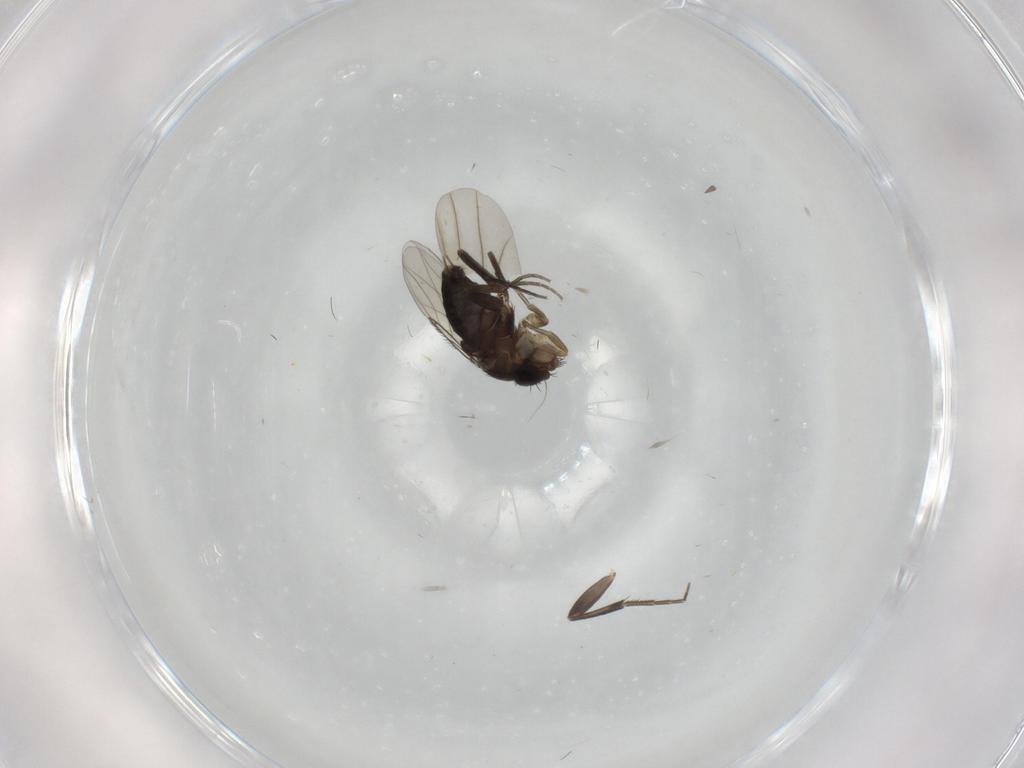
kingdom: Animalia
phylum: Arthropoda
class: Insecta
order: Diptera
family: Phoridae
